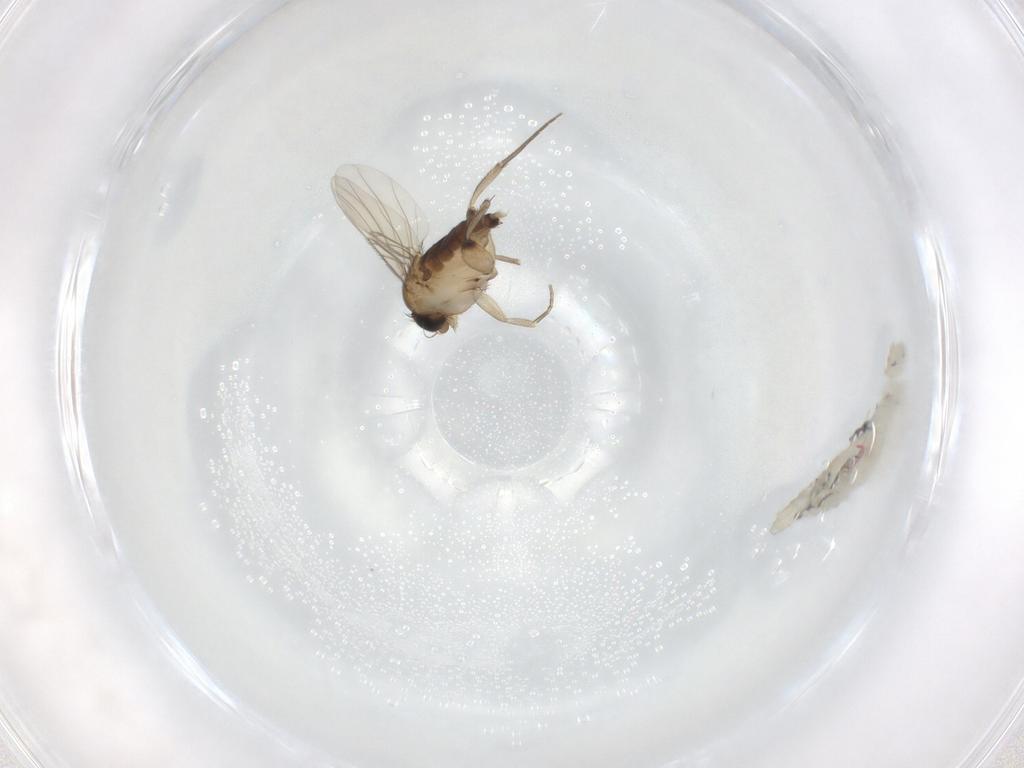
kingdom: Animalia
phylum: Arthropoda
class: Insecta
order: Diptera
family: Phoridae
